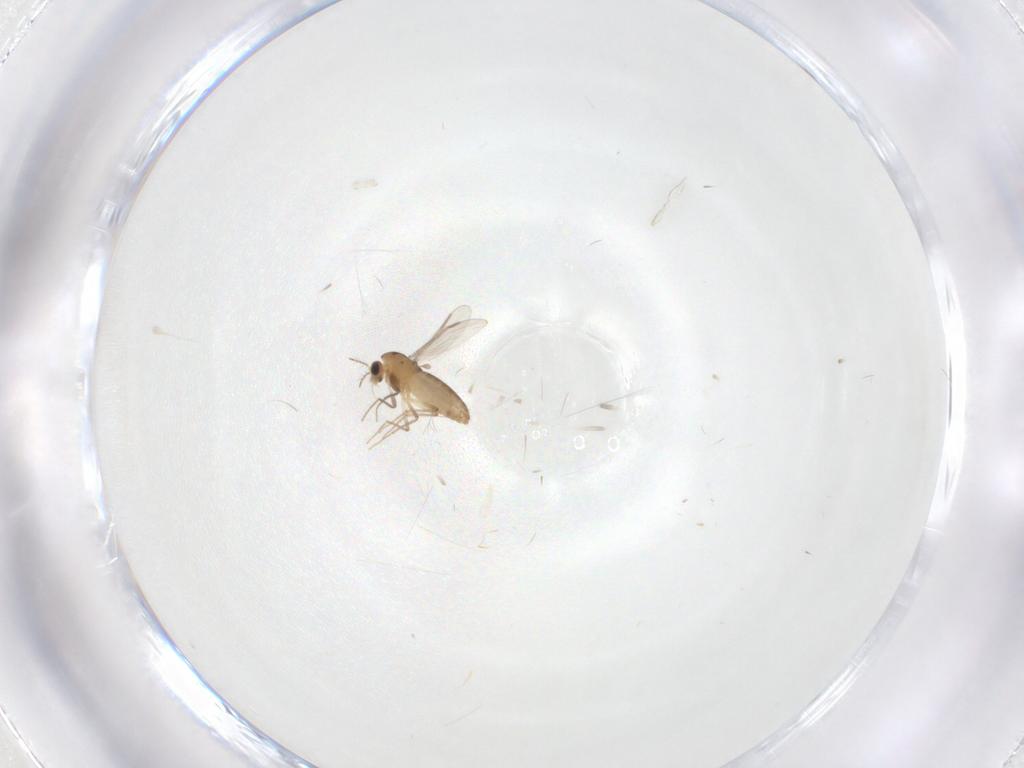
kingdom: Animalia
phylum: Arthropoda
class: Insecta
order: Diptera
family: Chironomidae
